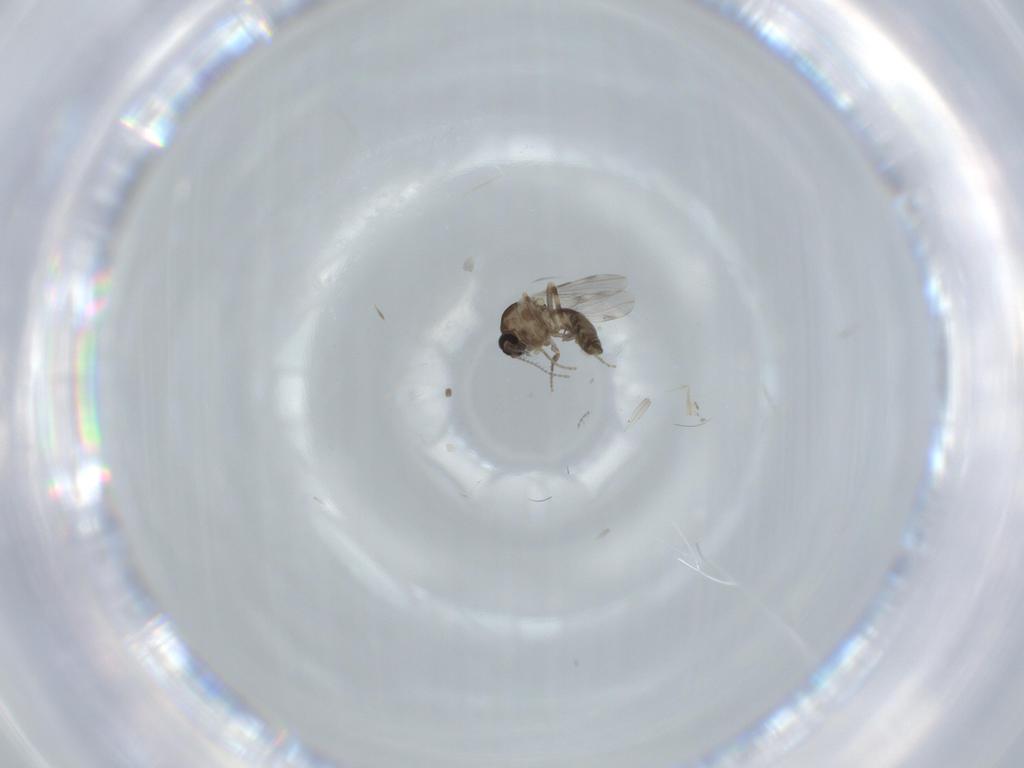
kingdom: Animalia
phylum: Arthropoda
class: Insecta
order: Diptera
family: Ceratopogonidae
